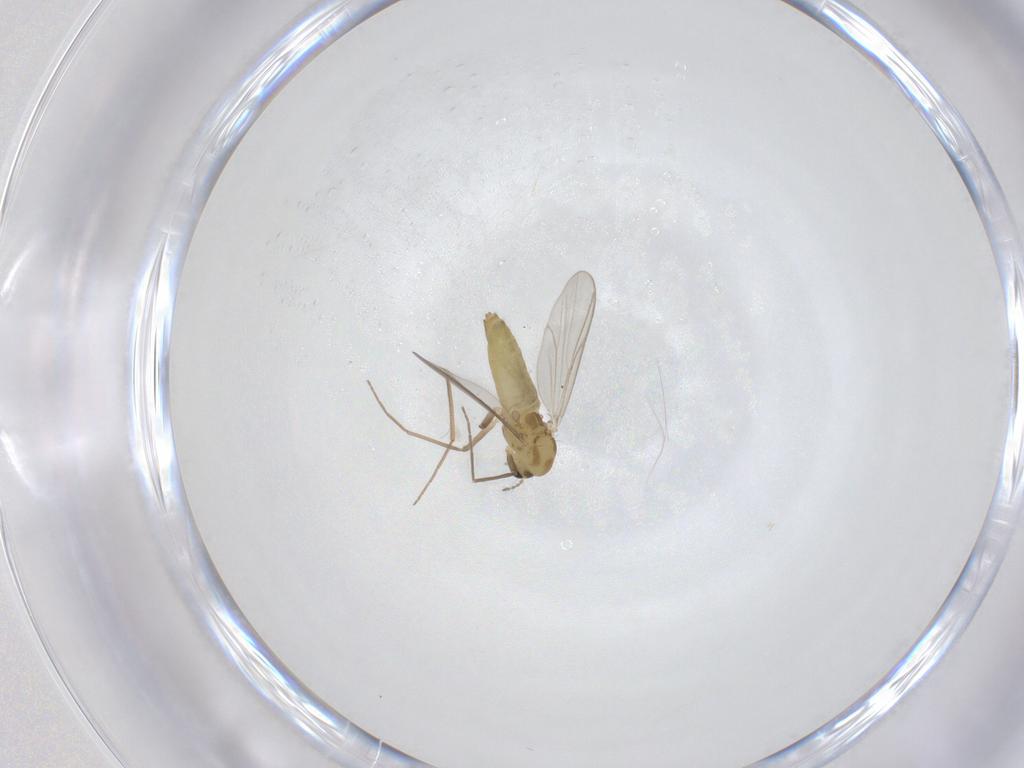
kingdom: Animalia
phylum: Arthropoda
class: Insecta
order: Diptera
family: Chironomidae
